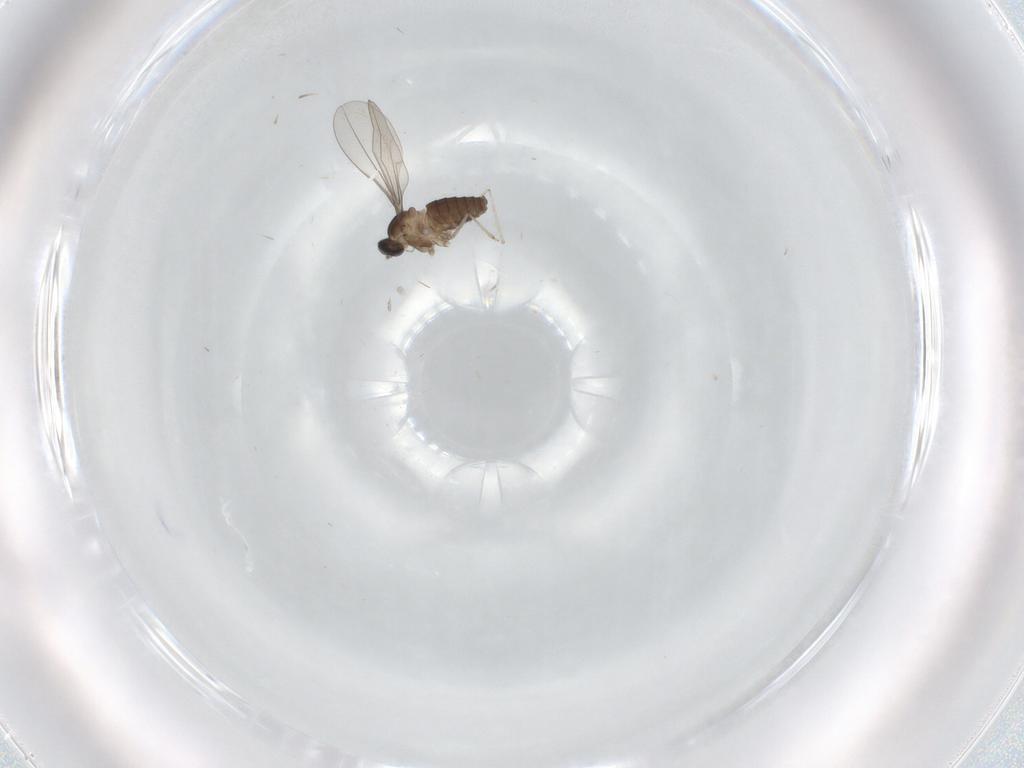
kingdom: Animalia
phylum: Arthropoda
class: Insecta
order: Diptera
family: Cecidomyiidae
